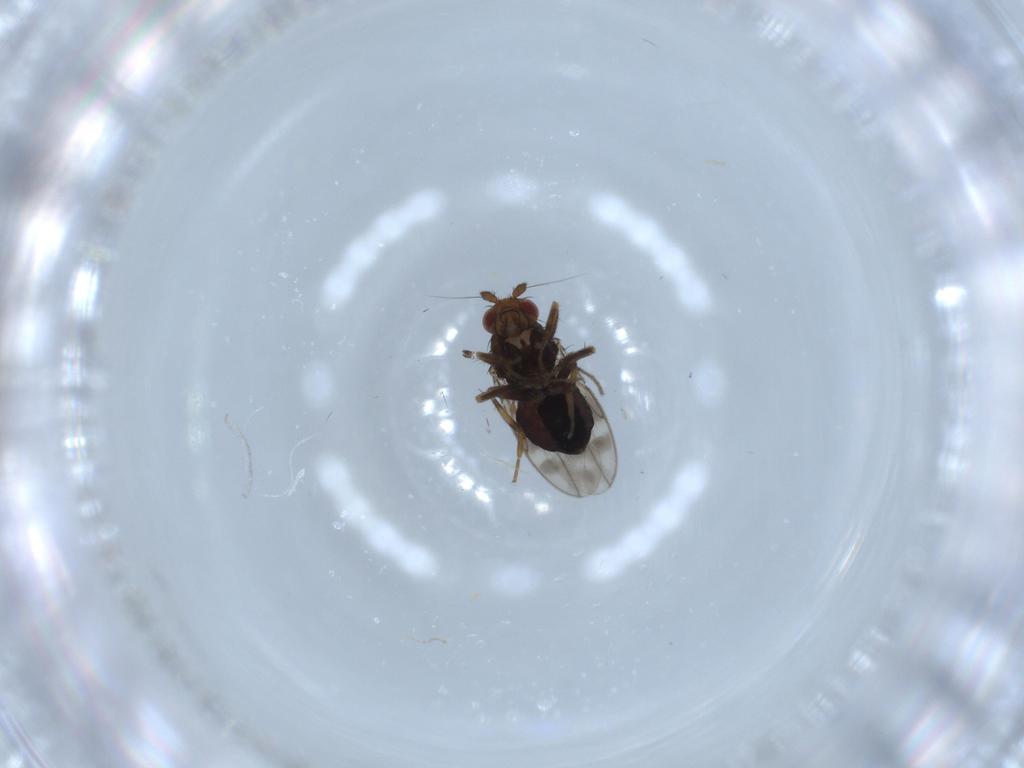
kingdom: Animalia
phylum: Arthropoda
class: Insecta
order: Diptera
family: Sphaeroceridae
